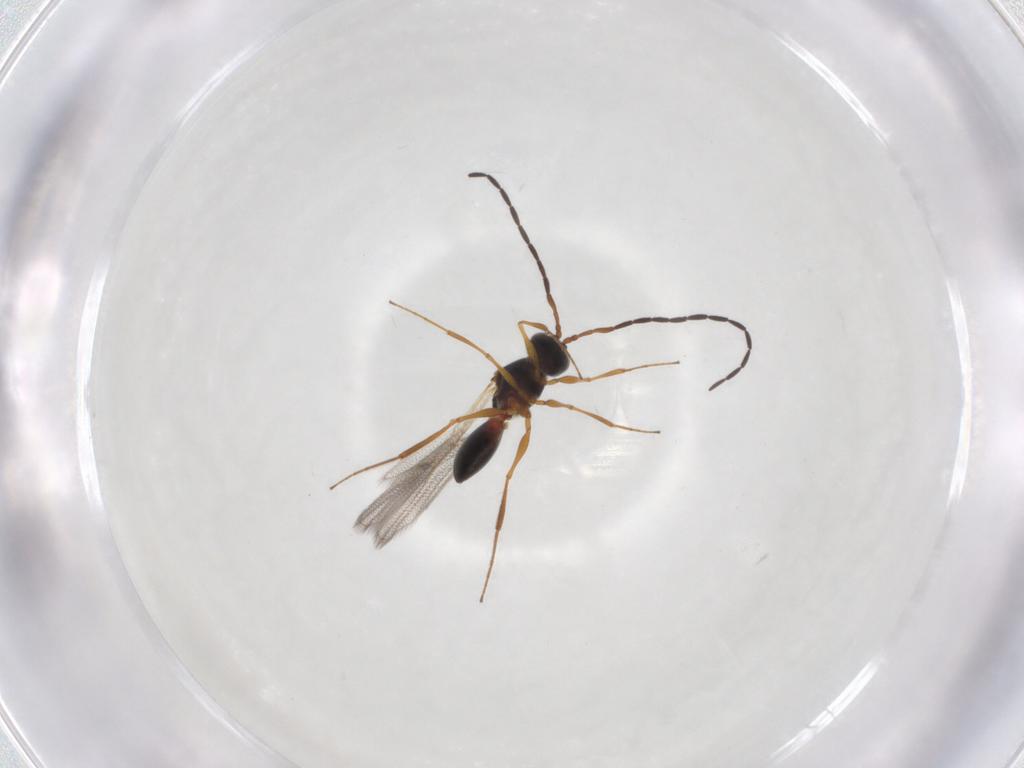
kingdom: Animalia
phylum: Arthropoda
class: Insecta
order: Hymenoptera
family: Figitidae
